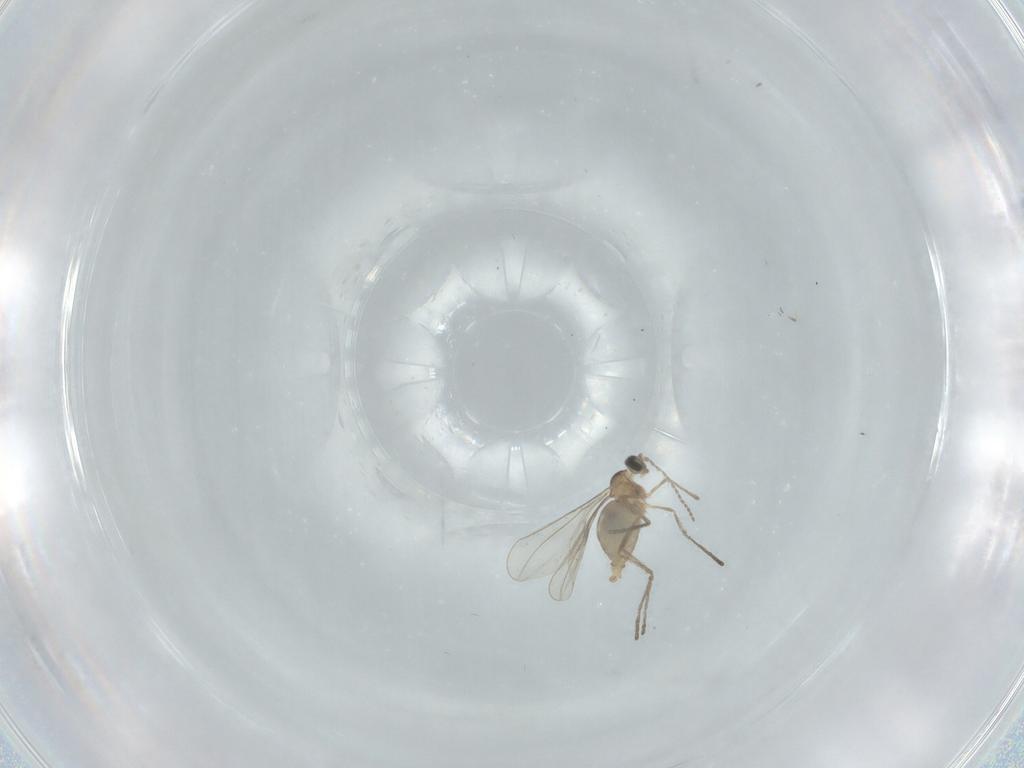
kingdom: Animalia
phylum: Arthropoda
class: Insecta
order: Diptera
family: Cecidomyiidae
